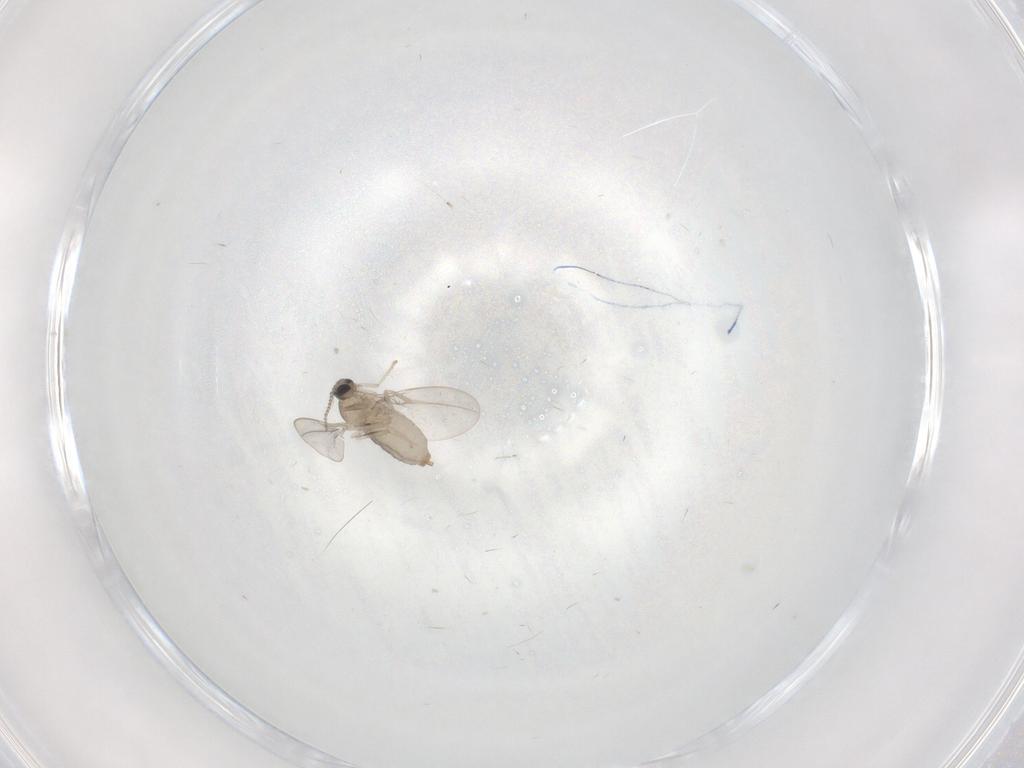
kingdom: Animalia
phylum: Arthropoda
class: Insecta
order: Diptera
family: Cecidomyiidae
